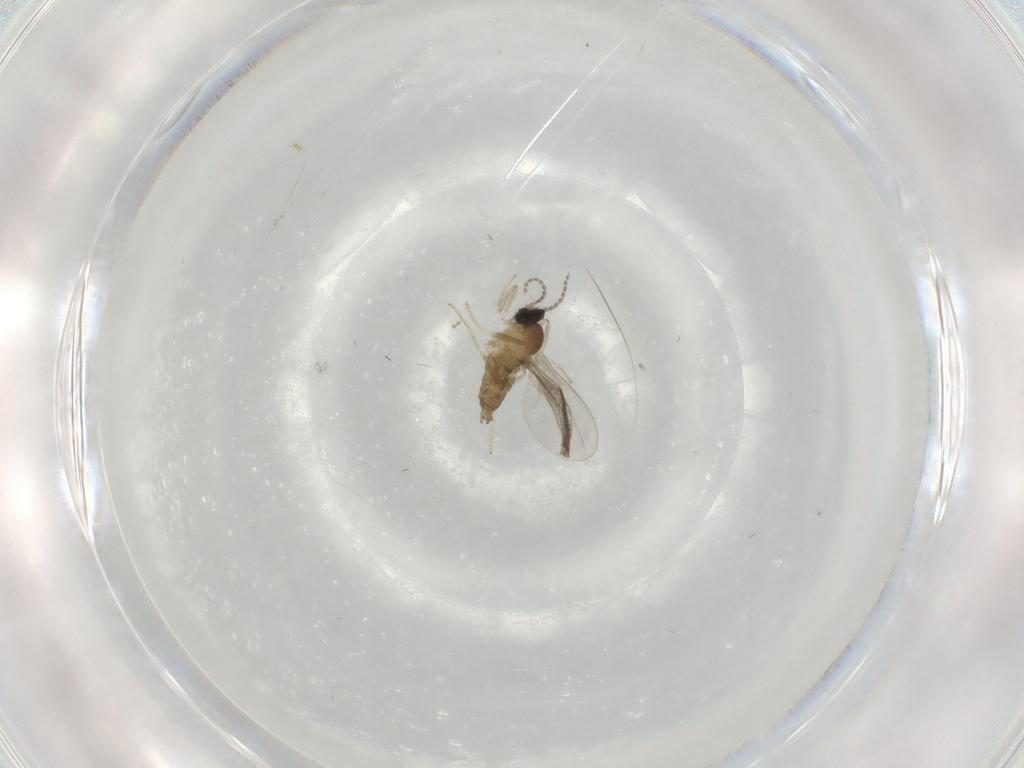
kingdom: Animalia
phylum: Arthropoda
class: Insecta
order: Diptera
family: Cecidomyiidae
